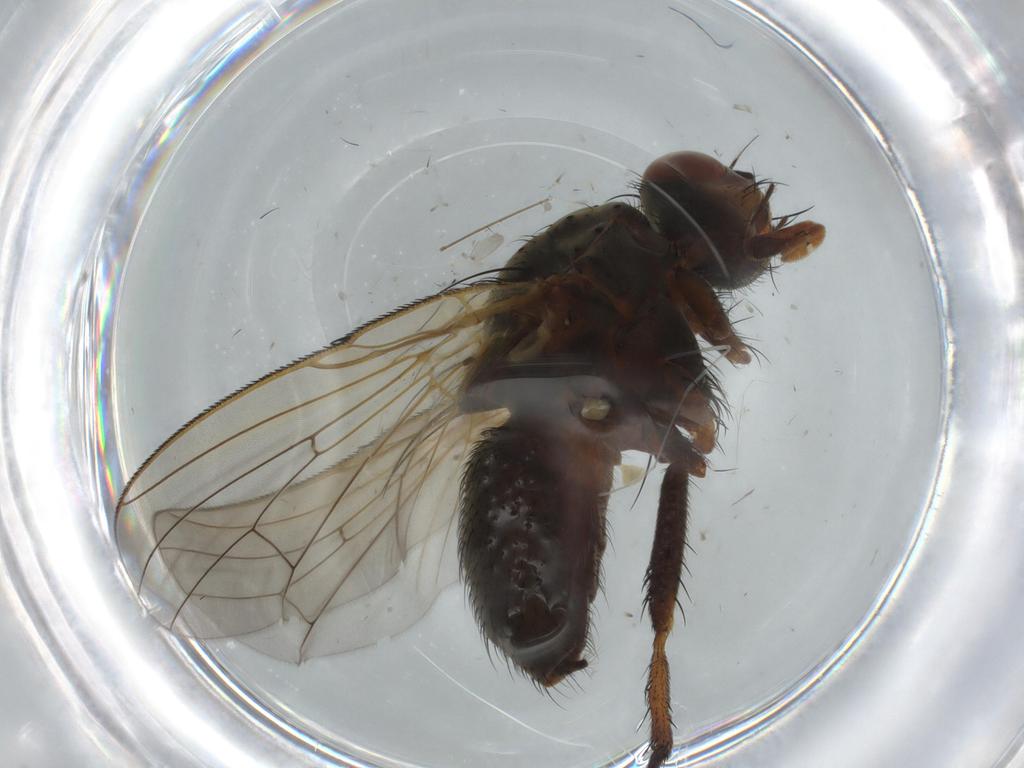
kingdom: Animalia
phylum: Arthropoda
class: Insecta
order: Diptera
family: Anthomyiidae
